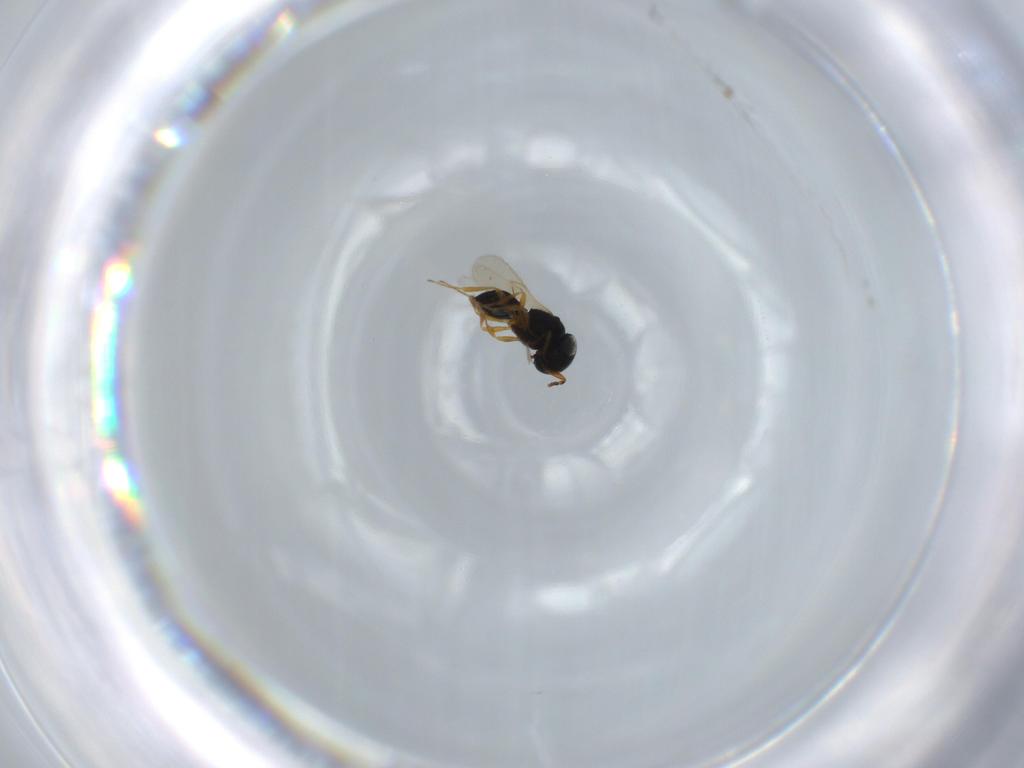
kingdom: Animalia
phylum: Arthropoda
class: Insecta
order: Hymenoptera
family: Scelionidae
